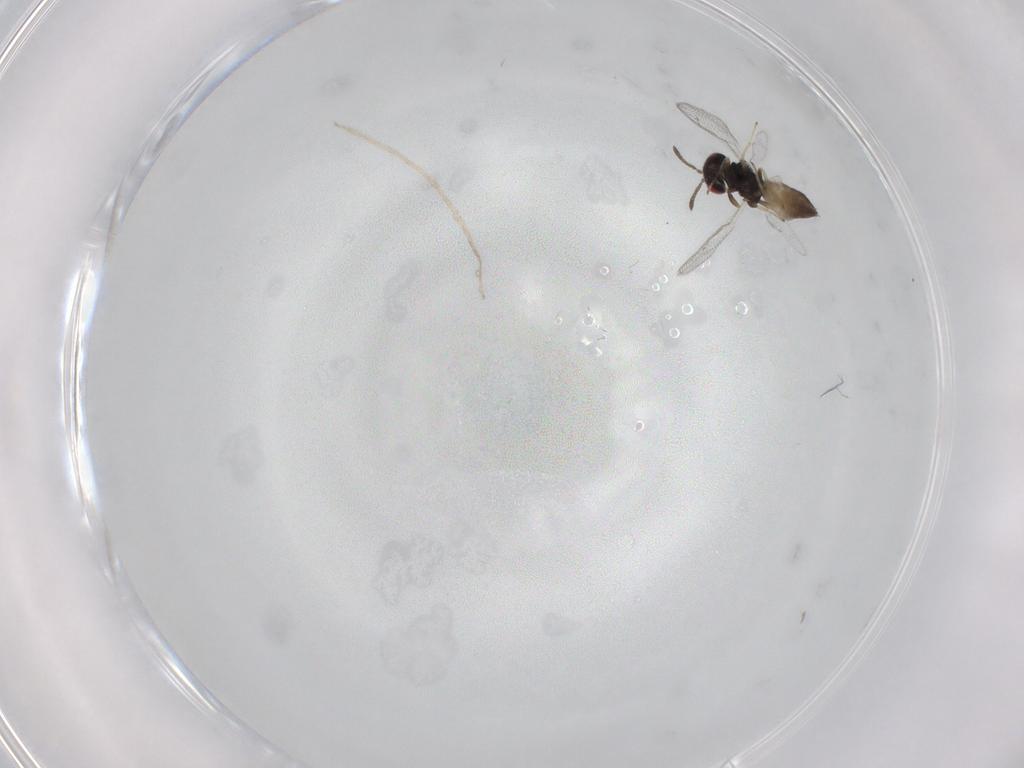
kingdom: Animalia
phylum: Arthropoda
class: Insecta
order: Hymenoptera
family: Pteromalidae
